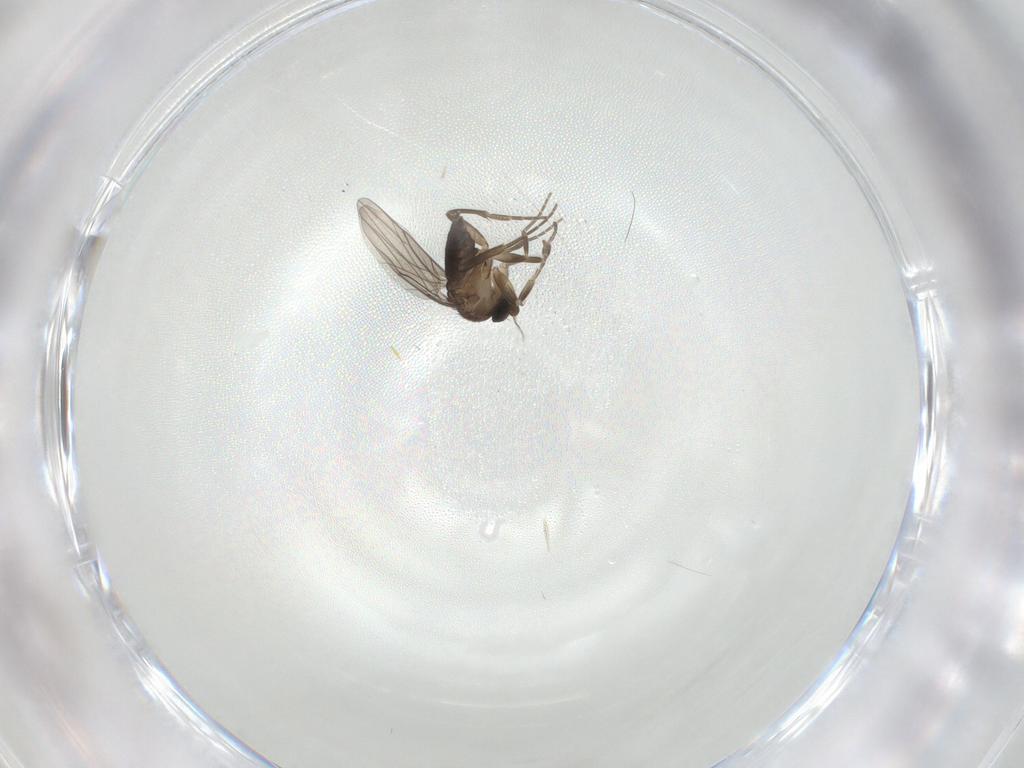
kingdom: Animalia
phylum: Arthropoda
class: Insecta
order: Diptera
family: Phoridae
